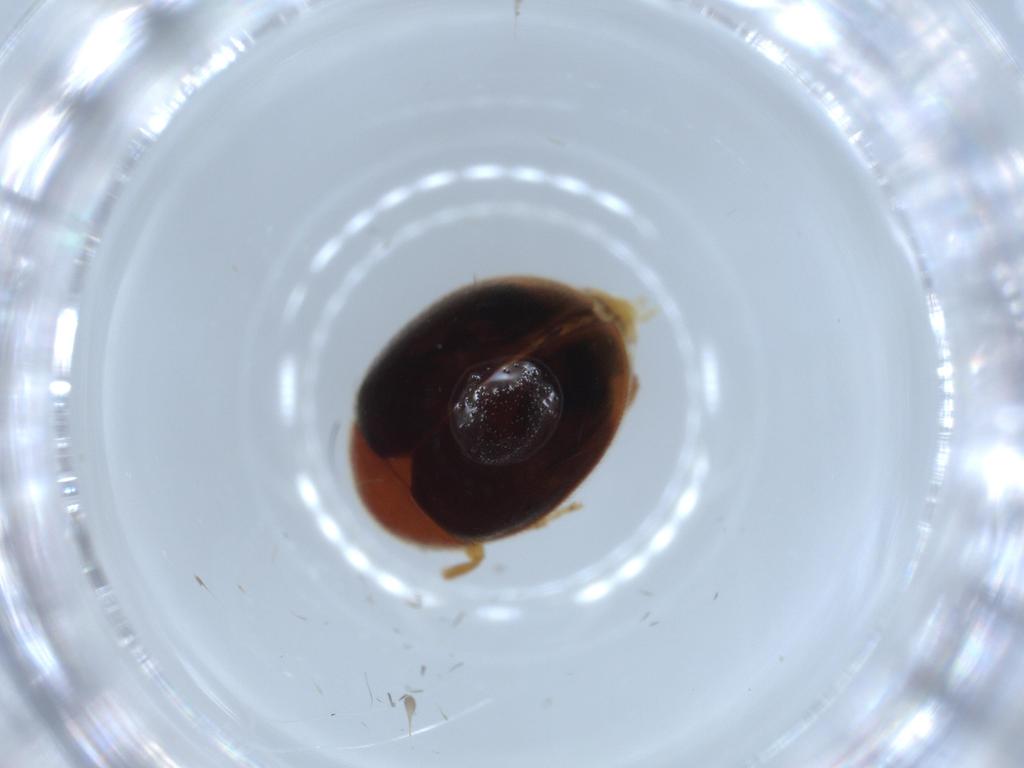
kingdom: Animalia
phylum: Arthropoda
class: Insecta
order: Coleoptera
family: Scirtidae
